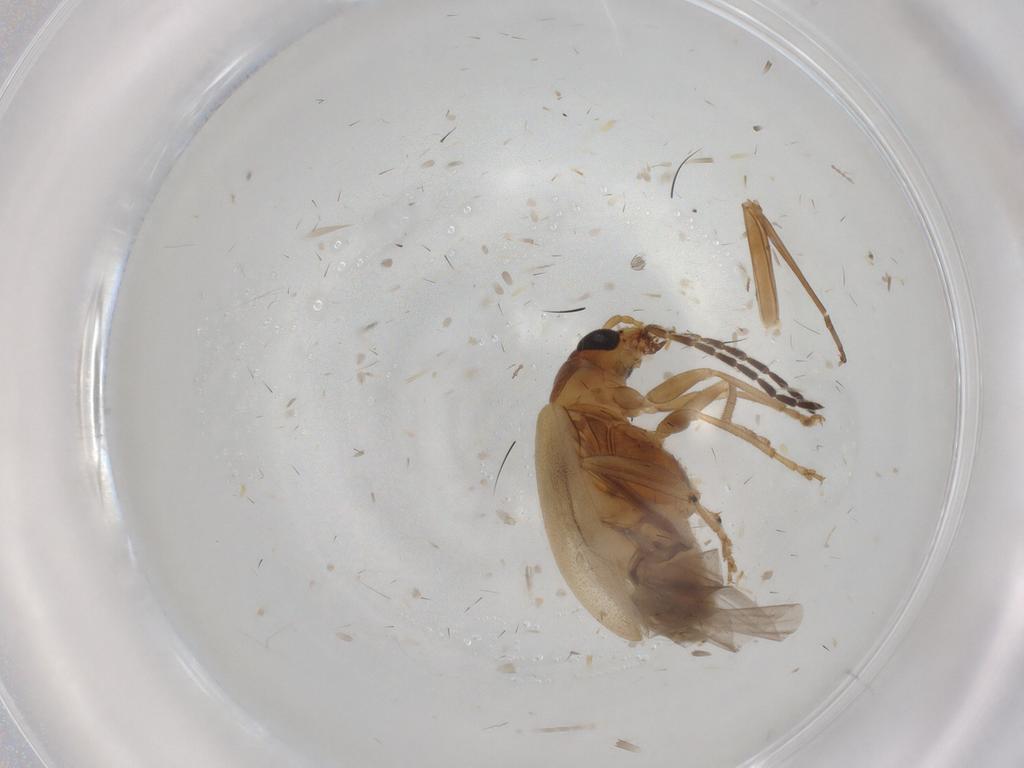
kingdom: Animalia
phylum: Arthropoda
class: Insecta
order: Coleoptera
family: Chrysomelidae
